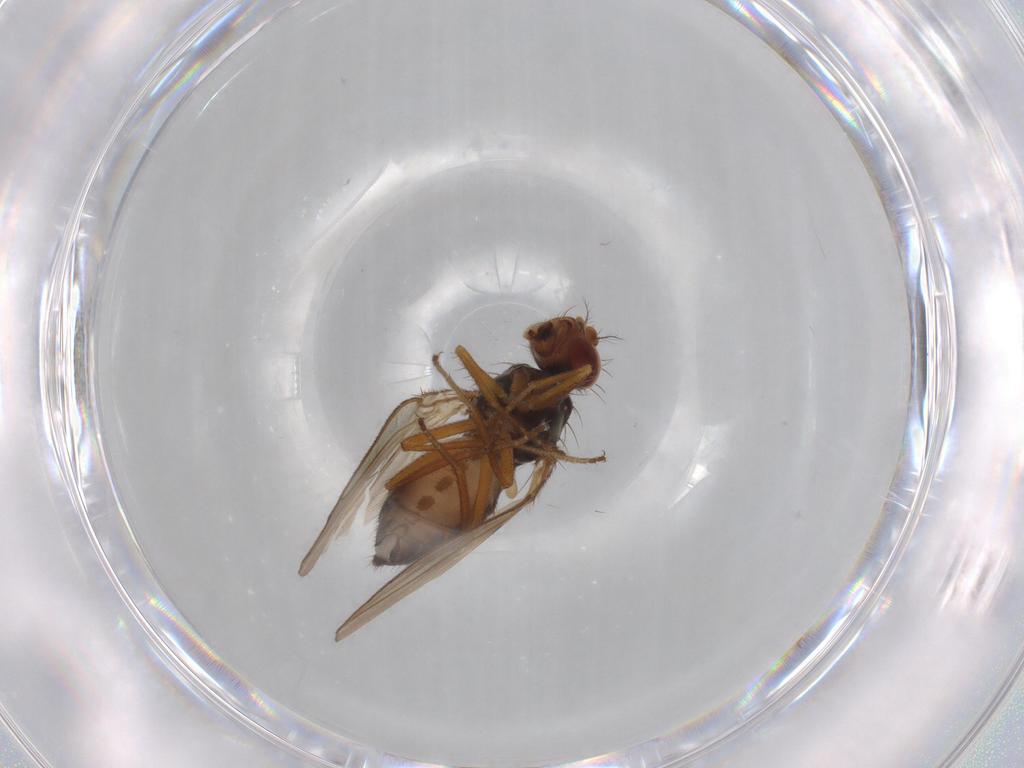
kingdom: Animalia
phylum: Arthropoda
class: Insecta
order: Diptera
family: Drosophilidae
